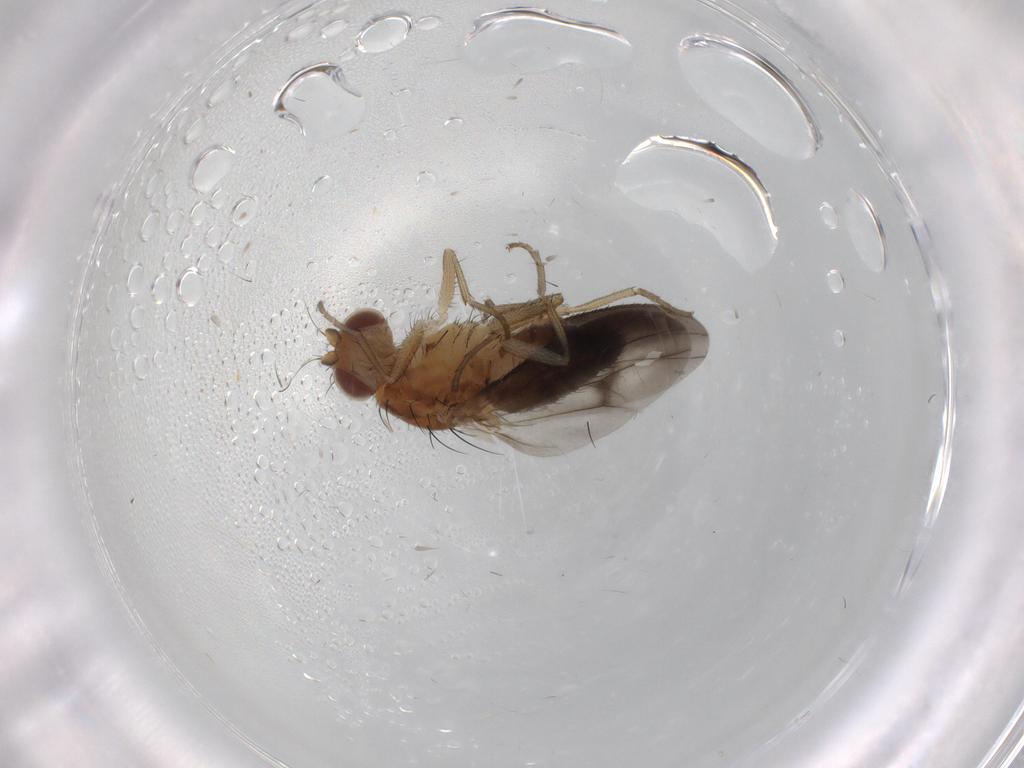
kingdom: Animalia
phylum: Arthropoda
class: Insecta
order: Diptera
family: Heleomyzidae
